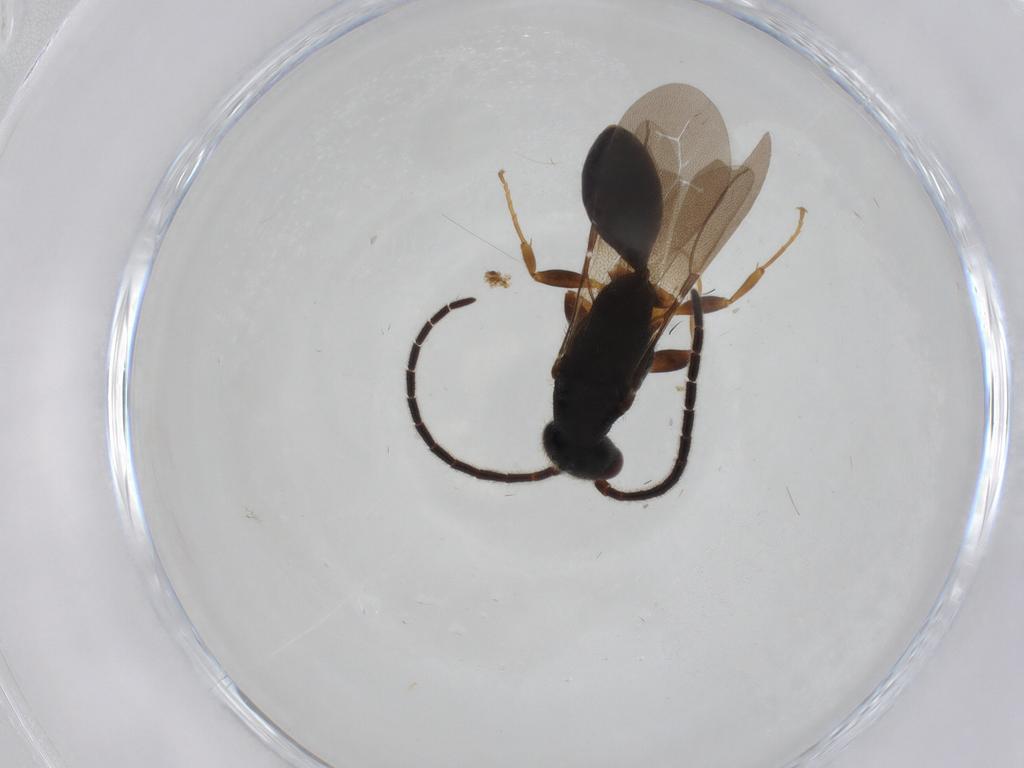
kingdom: Animalia
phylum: Arthropoda
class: Insecta
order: Hymenoptera
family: Bethylidae
